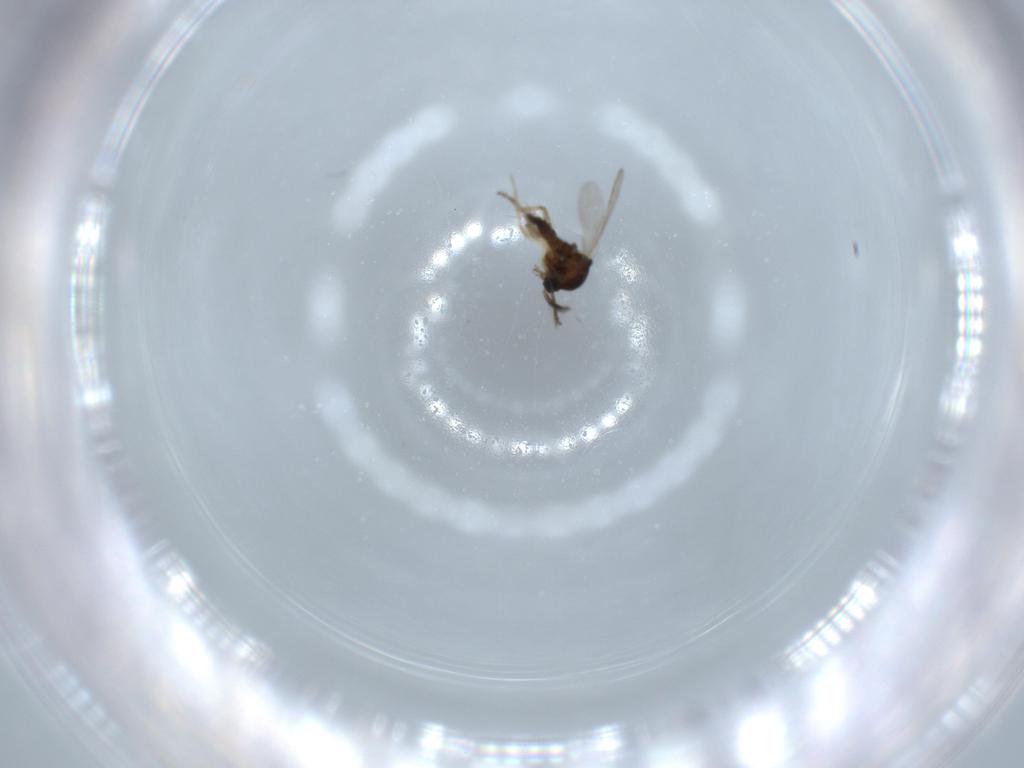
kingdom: Animalia
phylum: Arthropoda
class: Insecta
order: Diptera
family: Ceratopogonidae
